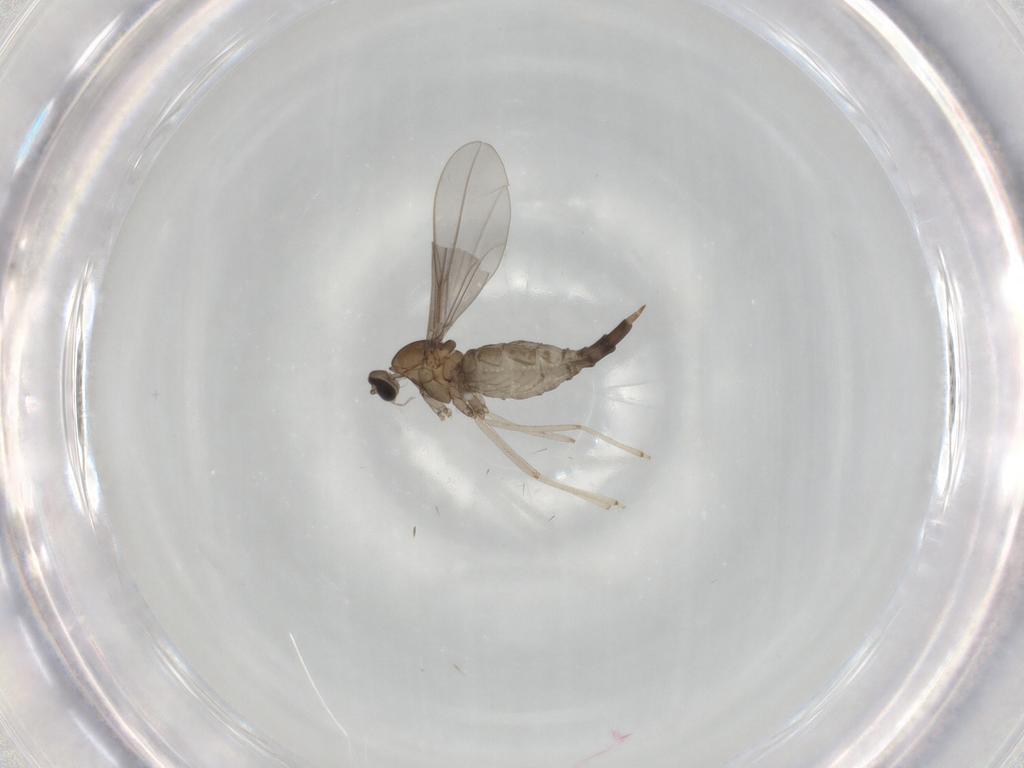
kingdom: Animalia
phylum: Arthropoda
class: Insecta
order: Diptera
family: Cecidomyiidae
